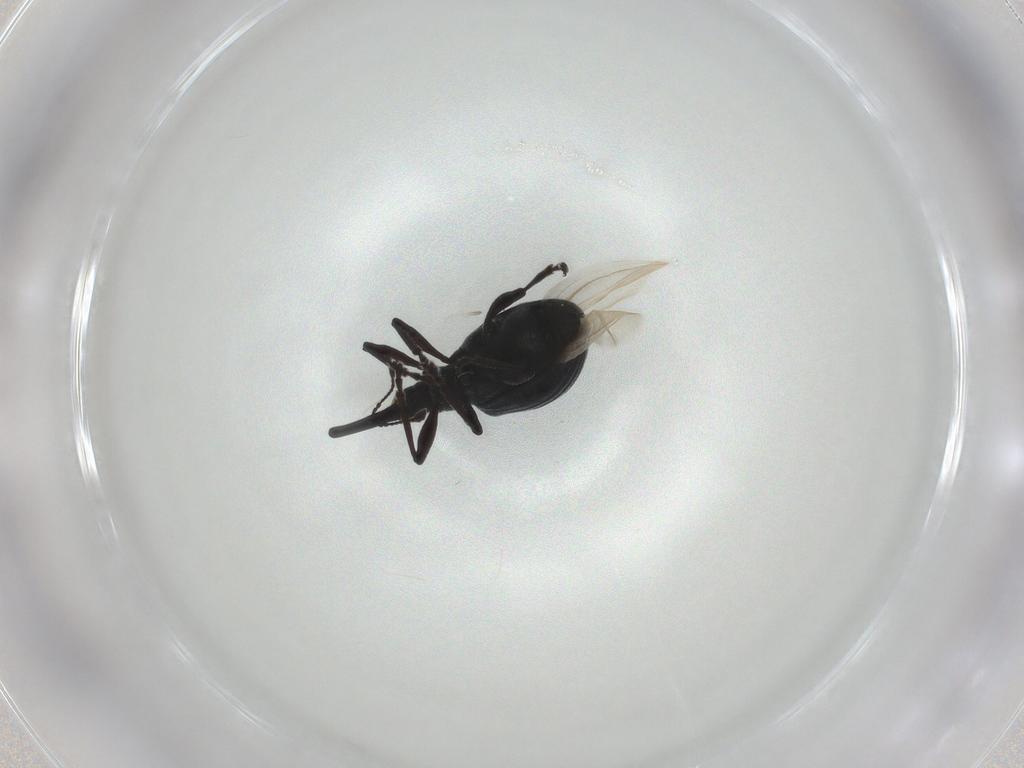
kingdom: Animalia
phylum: Arthropoda
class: Insecta
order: Coleoptera
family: Brentidae
